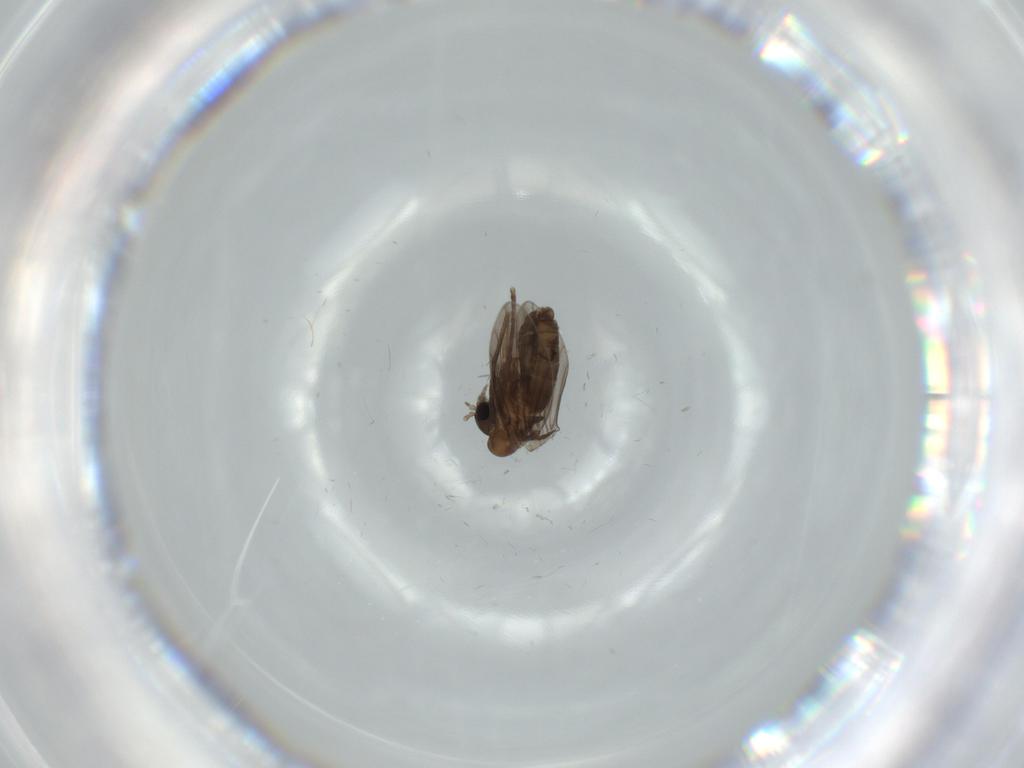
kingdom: Animalia
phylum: Arthropoda
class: Insecta
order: Diptera
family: Psychodidae
